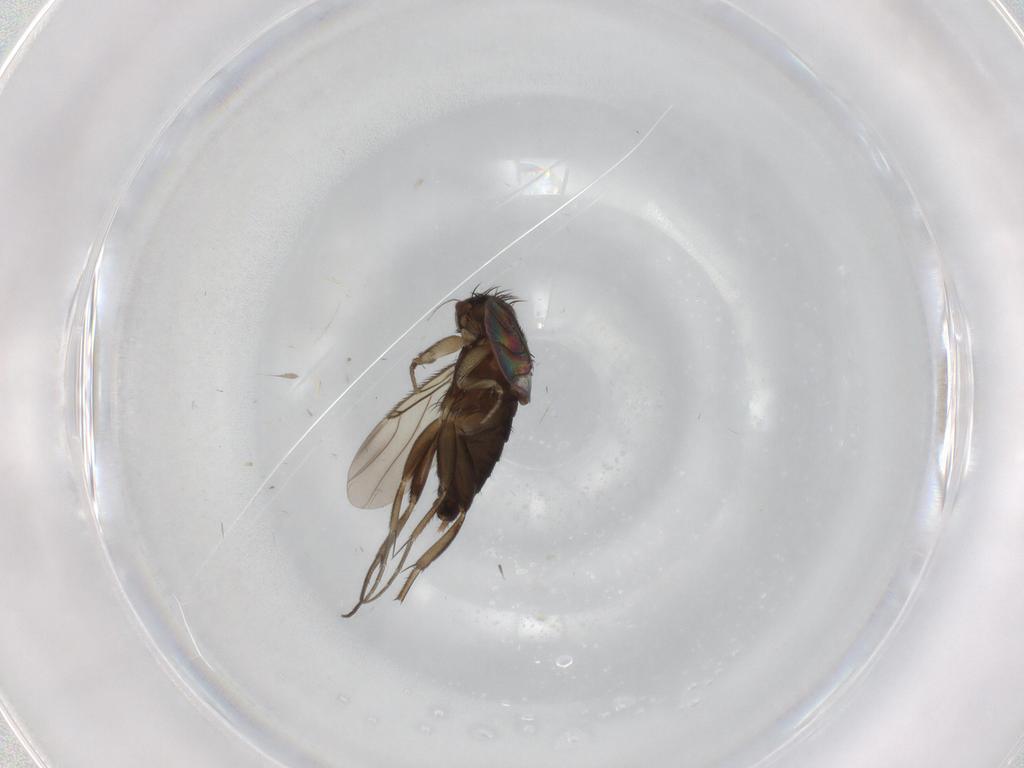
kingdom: Animalia
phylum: Arthropoda
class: Insecta
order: Diptera
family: Phoridae
